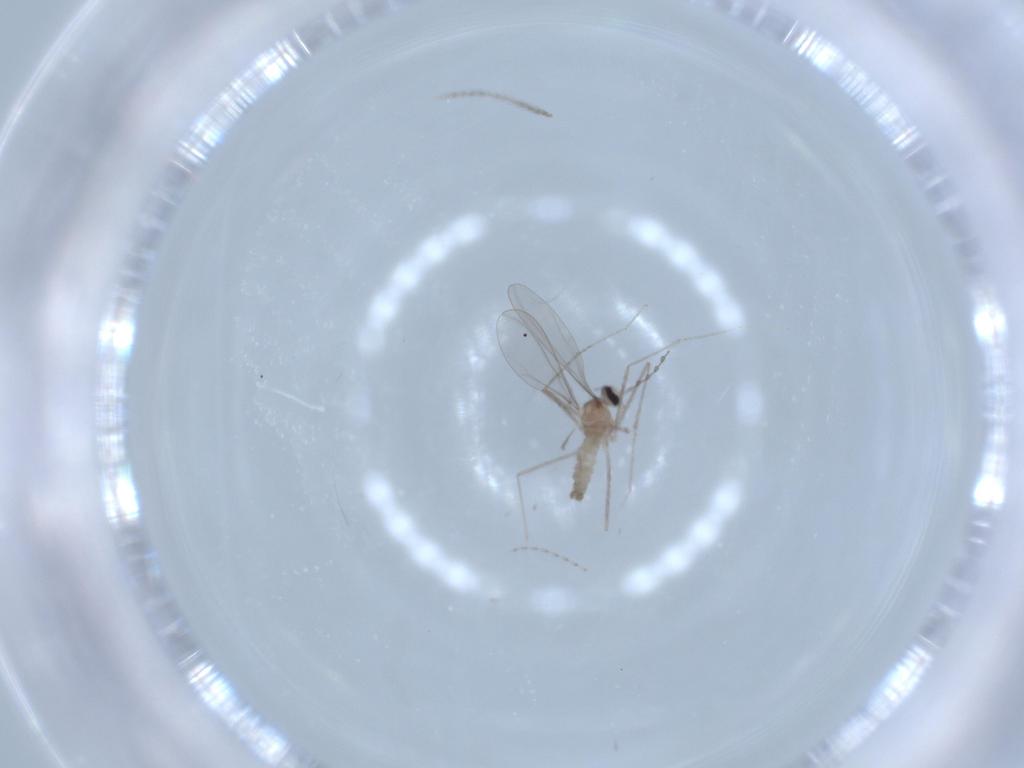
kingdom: Animalia
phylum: Arthropoda
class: Insecta
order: Diptera
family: Cecidomyiidae
